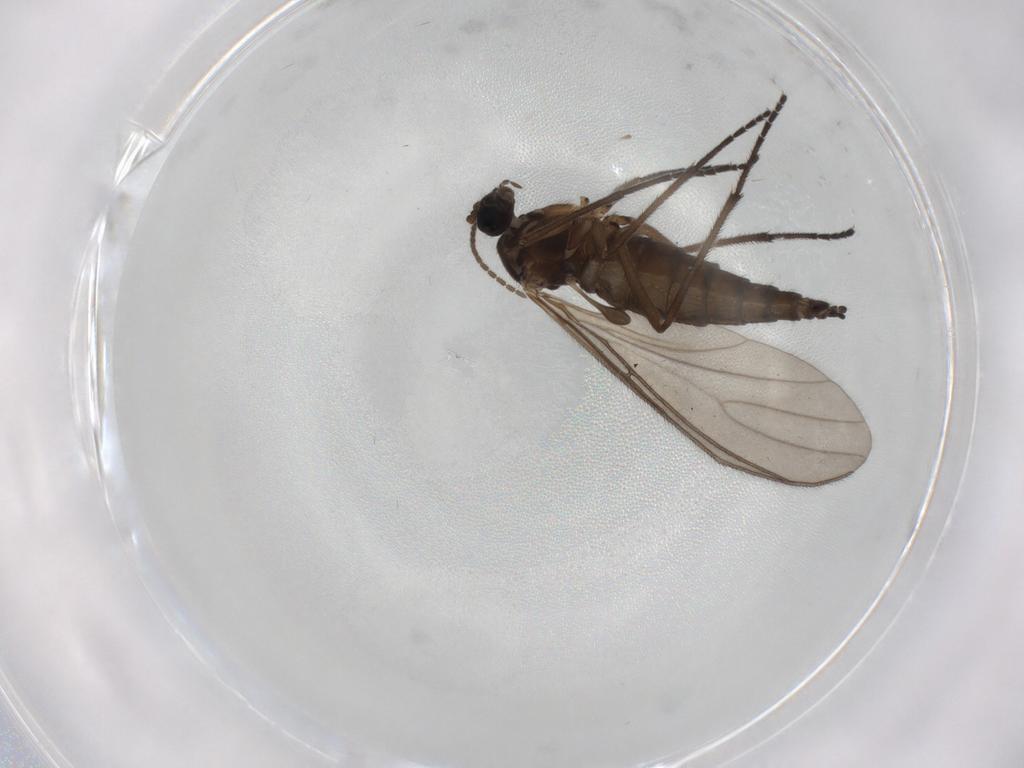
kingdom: Animalia
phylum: Arthropoda
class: Insecta
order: Diptera
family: Sciaridae
